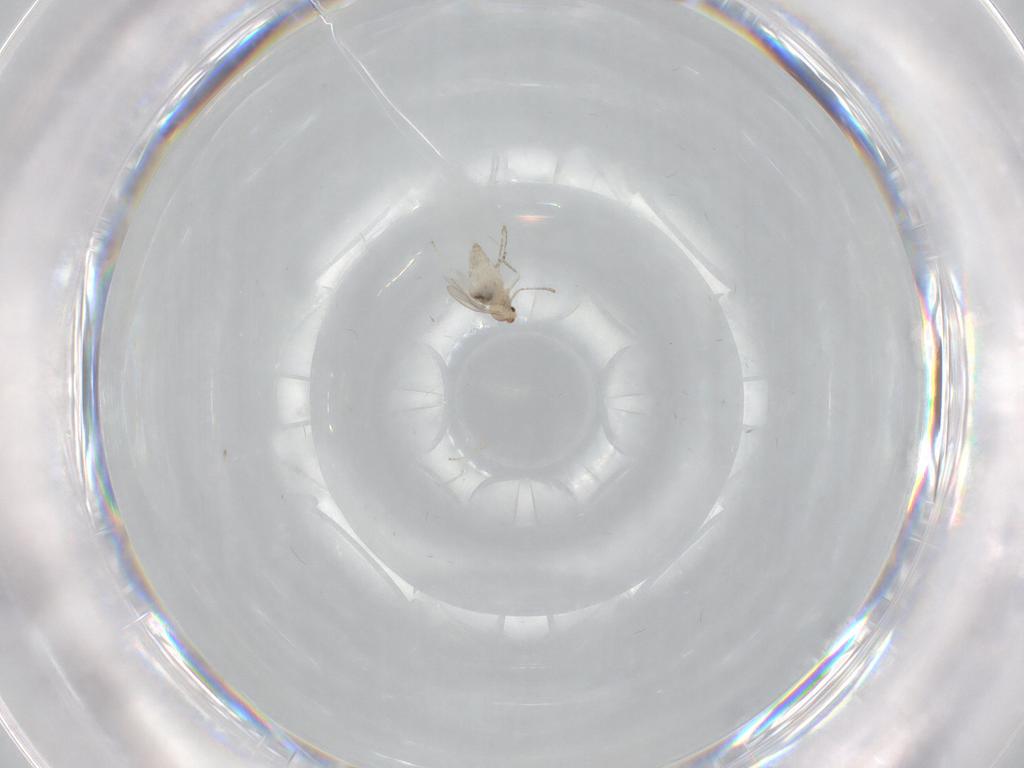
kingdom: Animalia
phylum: Arthropoda
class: Insecta
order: Diptera
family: Cecidomyiidae
